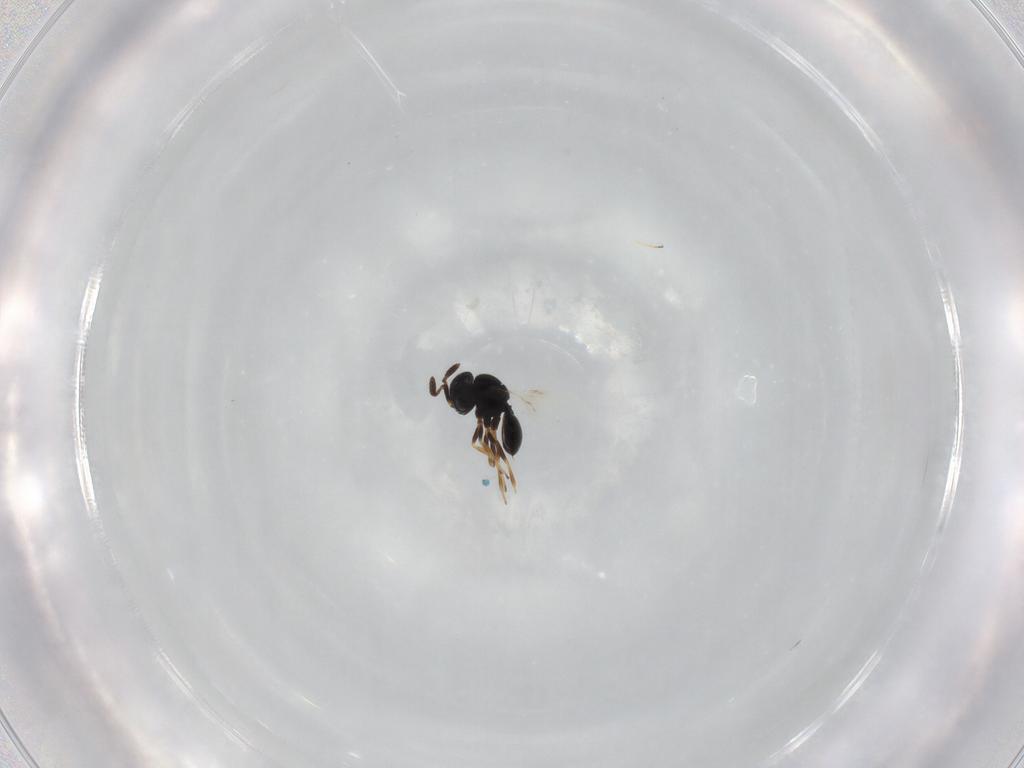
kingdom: Animalia
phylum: Arthropoda
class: Insecta
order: Hymenoptera
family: Scelionidae
